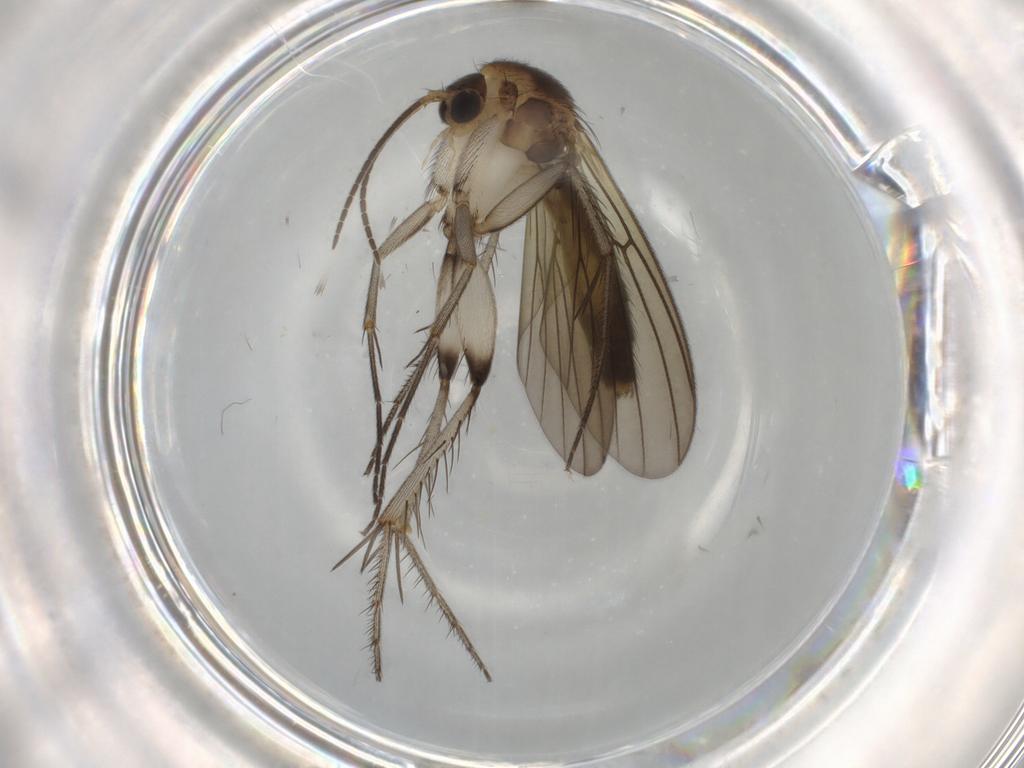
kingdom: Animalia
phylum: Arthropoda
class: Insecta
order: Diptera
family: Mycetophilidae
